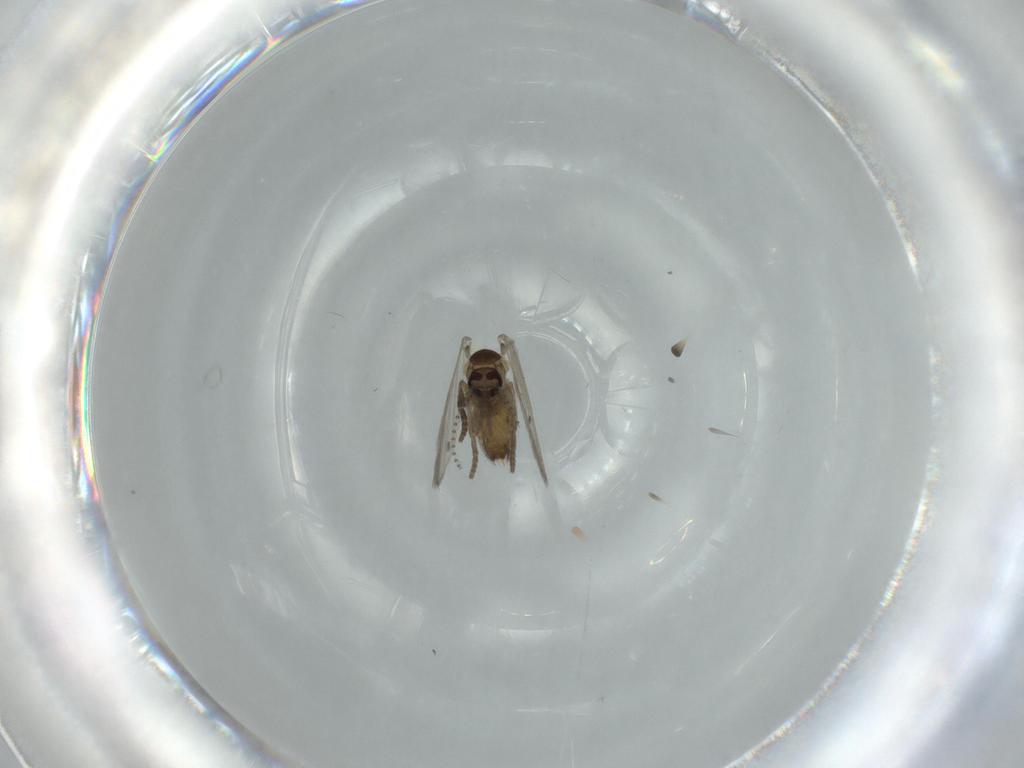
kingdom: Animalia
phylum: Arthropoda
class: Insecta
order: Diptera
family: Psychodidae
